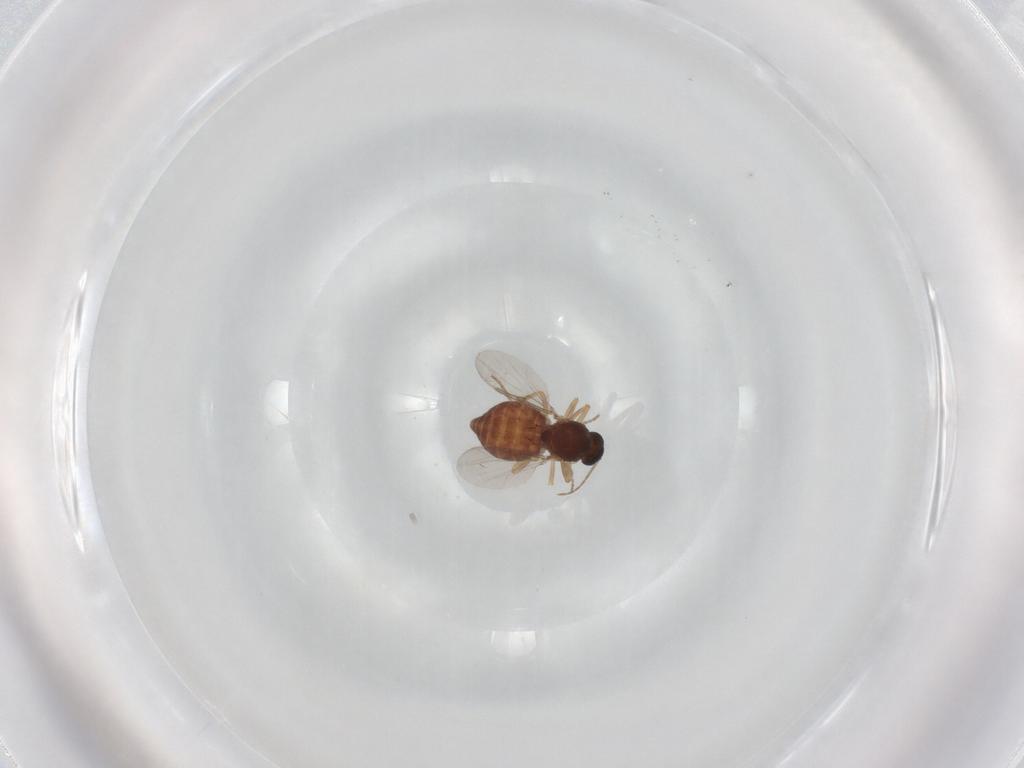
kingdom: Animalia
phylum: Arthropoda
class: Insecta
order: Diptera
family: Ceratopogonidae
